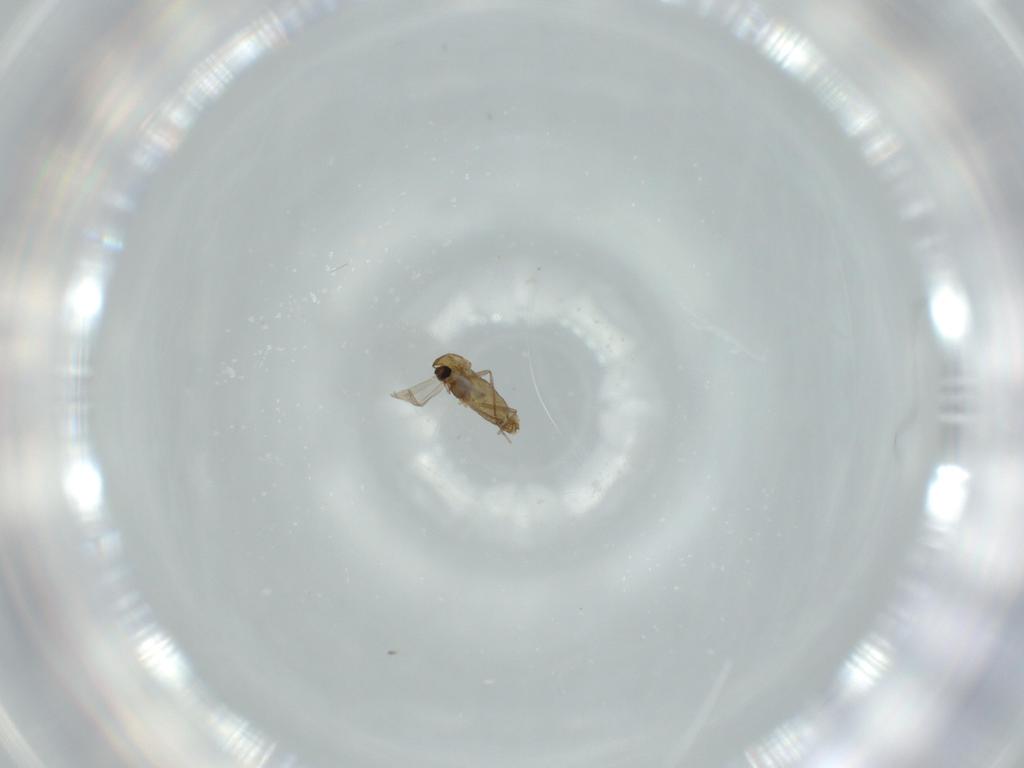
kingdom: Animalia
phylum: Arthropoda
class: Insecta
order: Diptera
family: Chironomidae
